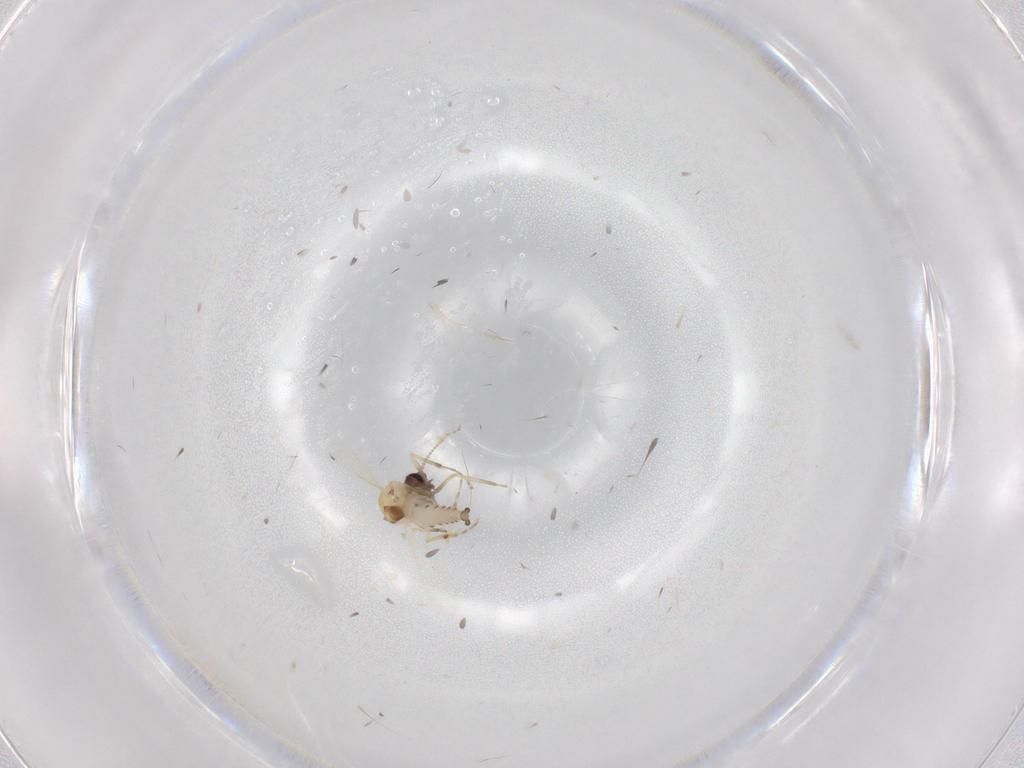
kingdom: Animalia
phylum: Arthropoda
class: Insecta
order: Diptera
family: Ceratopogonidae
